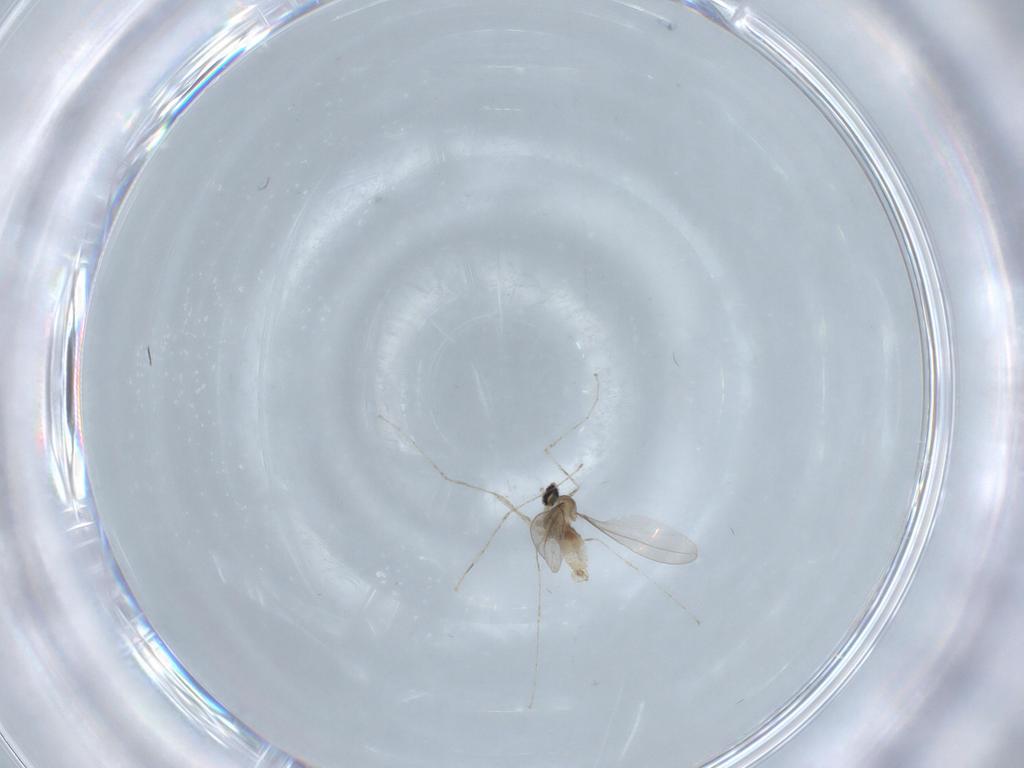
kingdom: Animalia
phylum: Arthropoda
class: Insecta
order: Diptera
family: Cecidomyiidae
